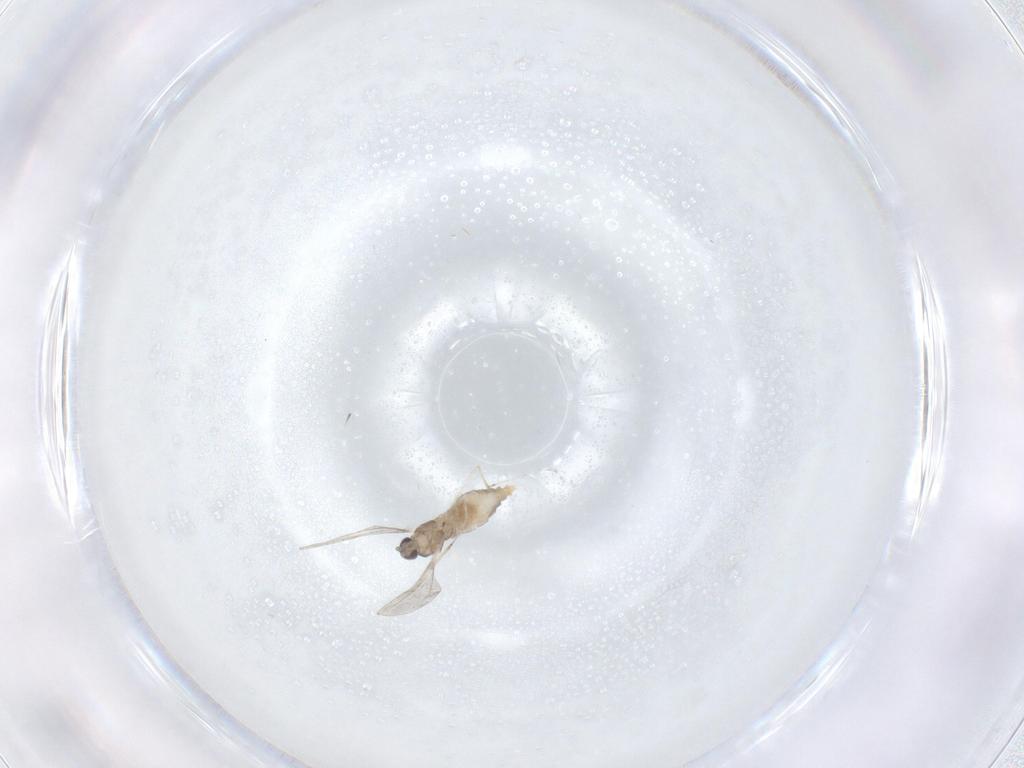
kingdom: Animalia
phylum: Arthropoda
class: Insecta
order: Diptera
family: Cecidomyiidae
